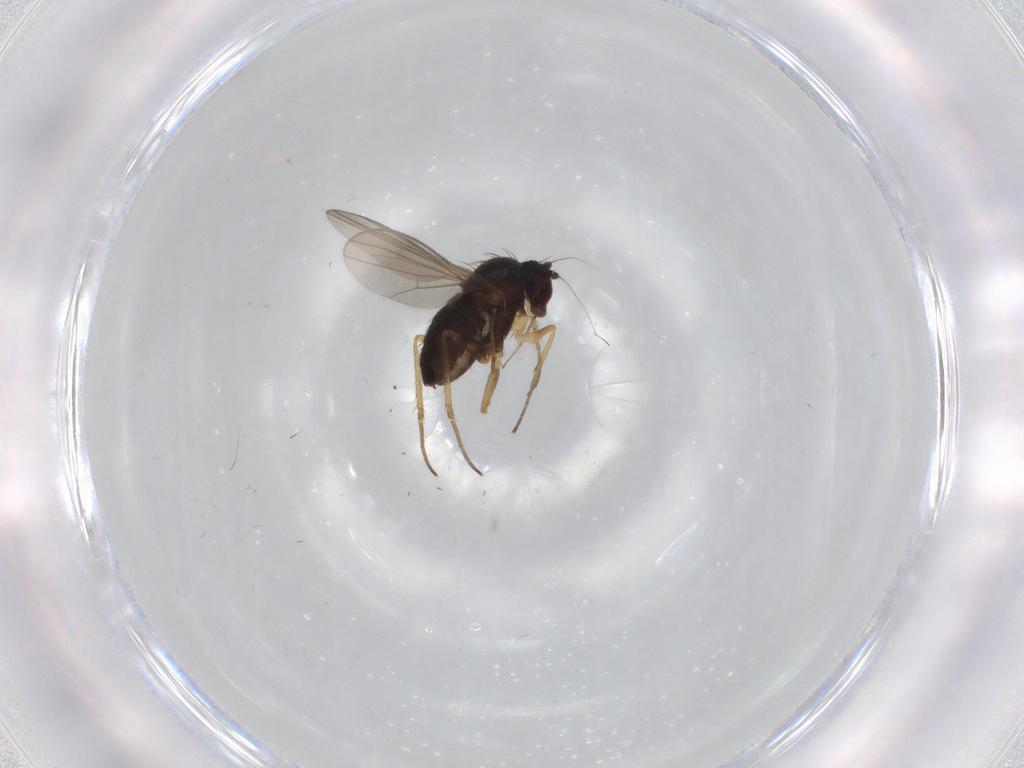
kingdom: Animalia
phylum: Arthropoda
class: Insecta
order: Diptera
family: Dolichopodidae
